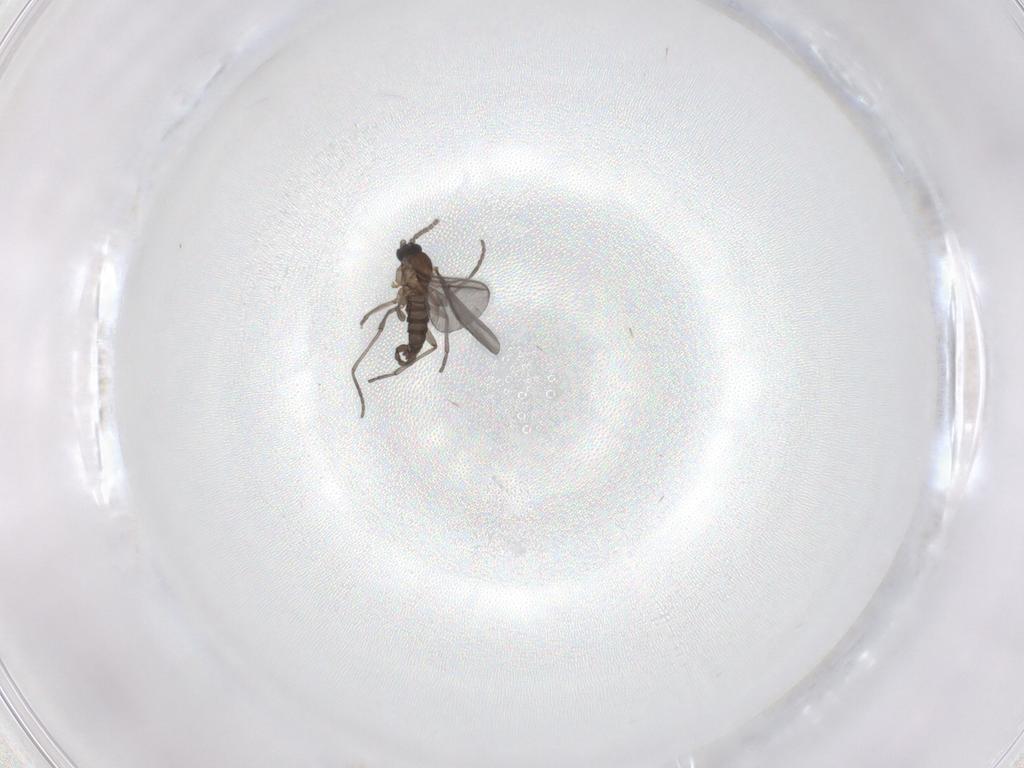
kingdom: Animalia
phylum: Arthropoda
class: Insecta
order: Diptera
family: Sciaridae
